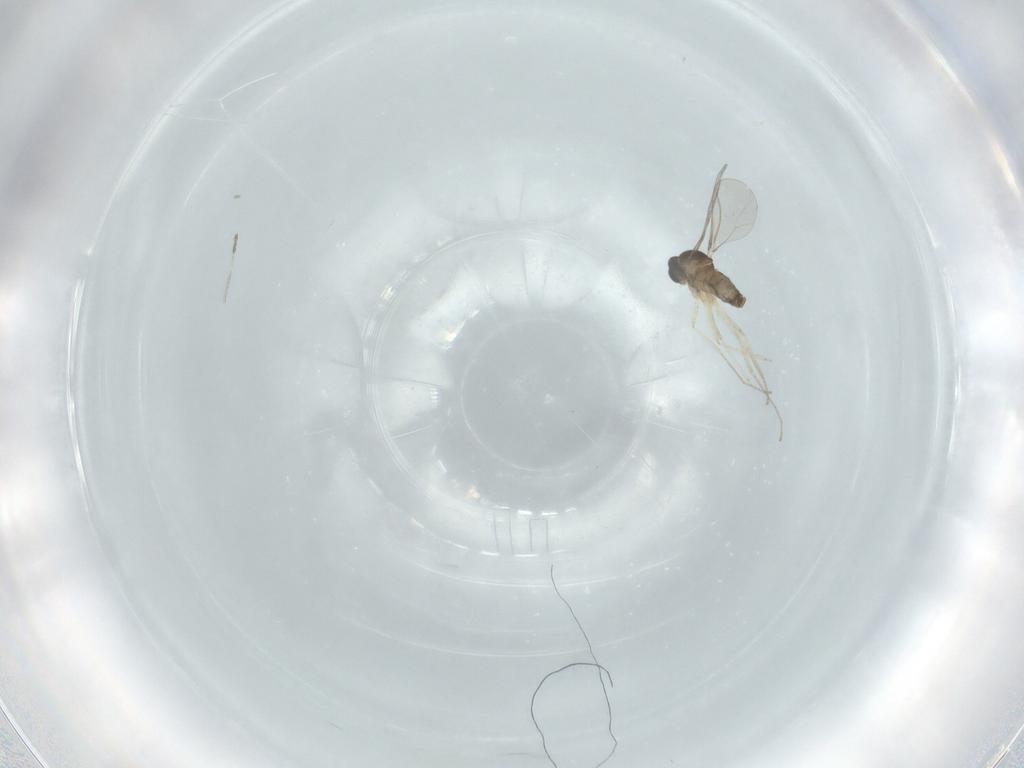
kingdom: Animalia
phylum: Arthropoda
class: Insecta
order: Diptera
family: Cecidomyiidae
